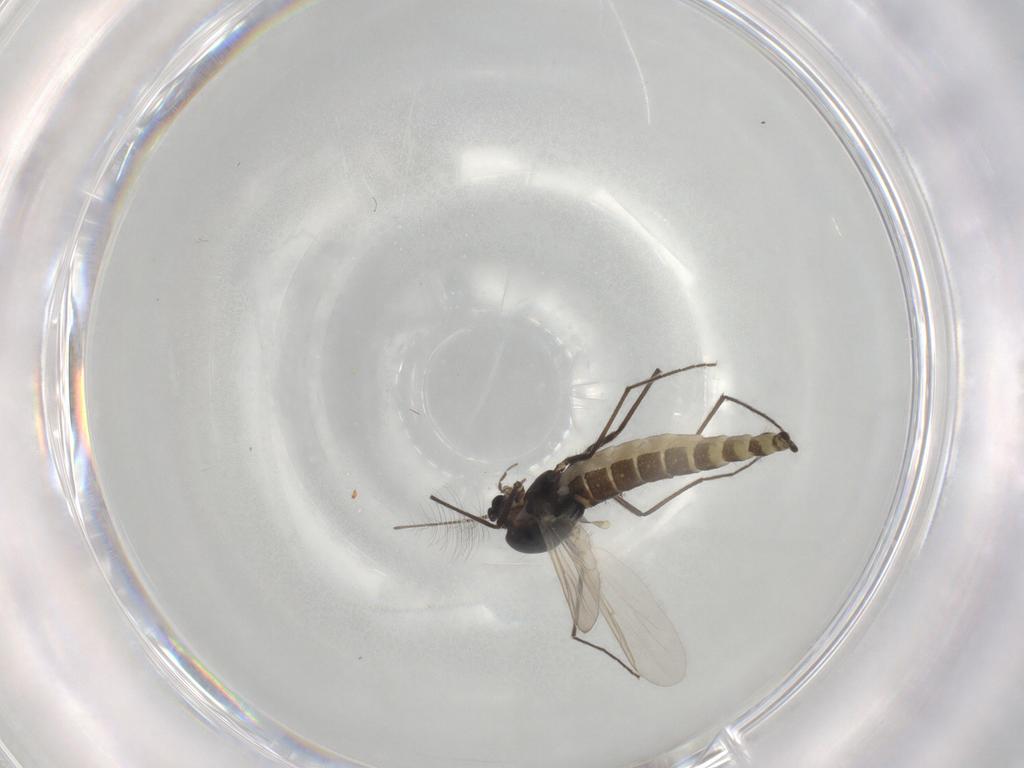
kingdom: Animalia
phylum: Arthropoda
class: Insecta
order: Diptera
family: Chironomidae
